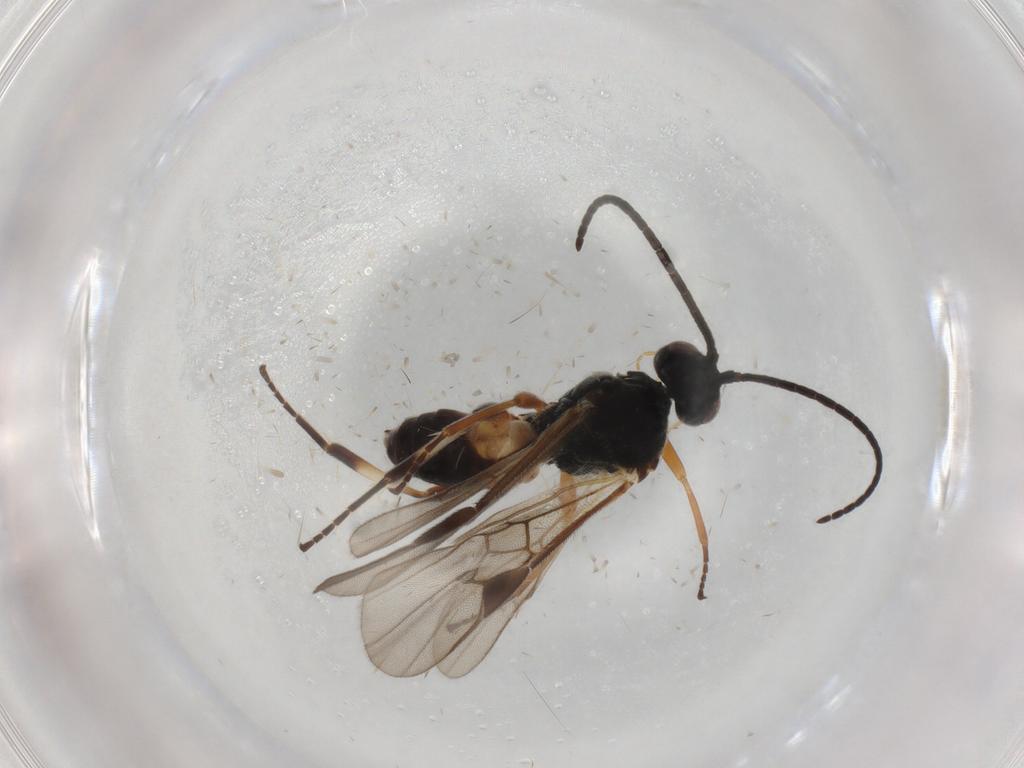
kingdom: Animalia
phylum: Arthropoda
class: Insecta
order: Hymenoptera
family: Braconidae
